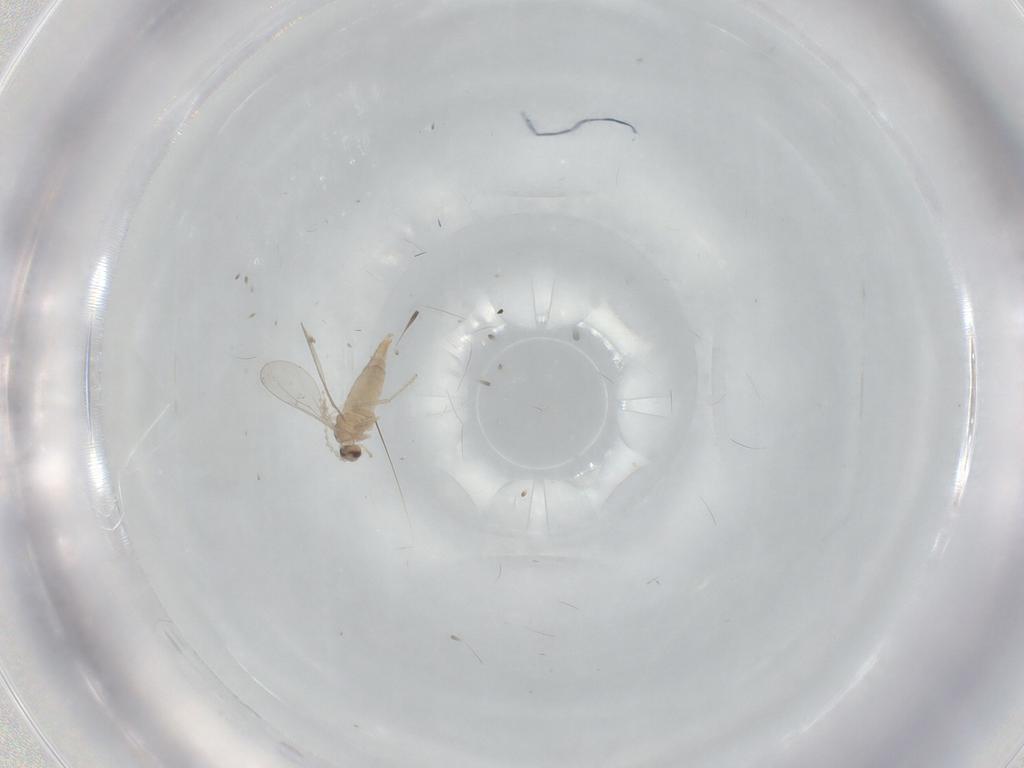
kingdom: Animalia
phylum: Arthropoda
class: Insecta
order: Diptera
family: Cecidomyiidae
